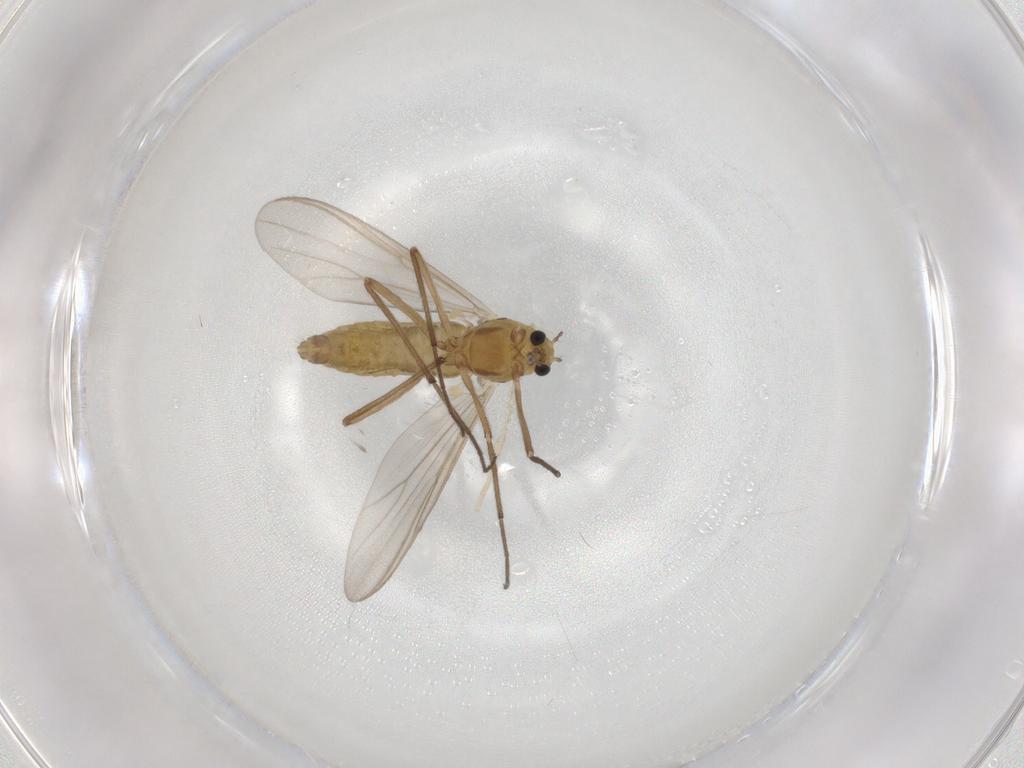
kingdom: Animalia
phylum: Arthropoda
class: Insecta
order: Diptera
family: Chironomidae
